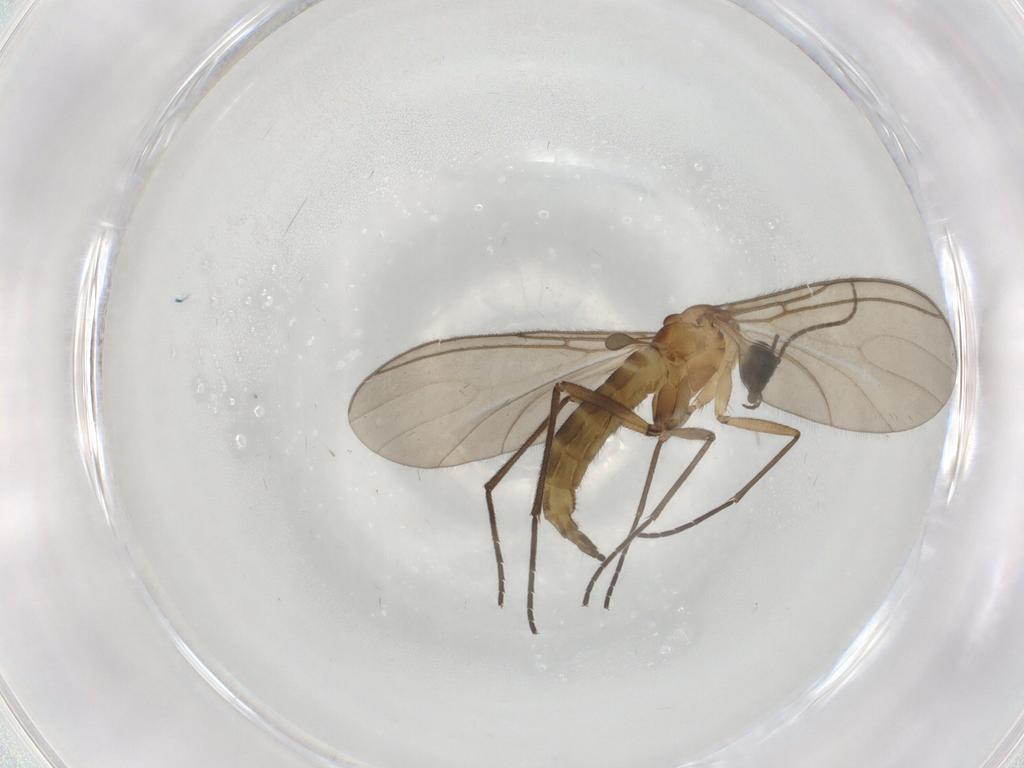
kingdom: Animalia
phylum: Arthropoda
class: Insecta
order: Diptera
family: Sciaridae
